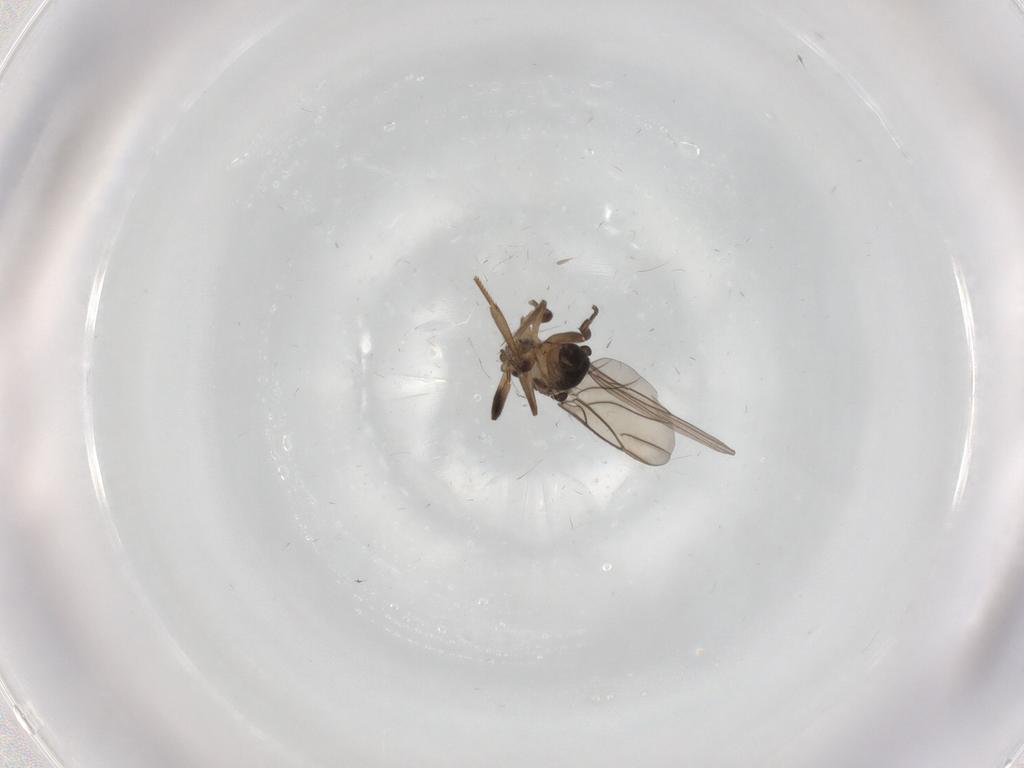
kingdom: Animalia
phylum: Arthropoda
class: Insecta
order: Diptera
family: Phoridae
